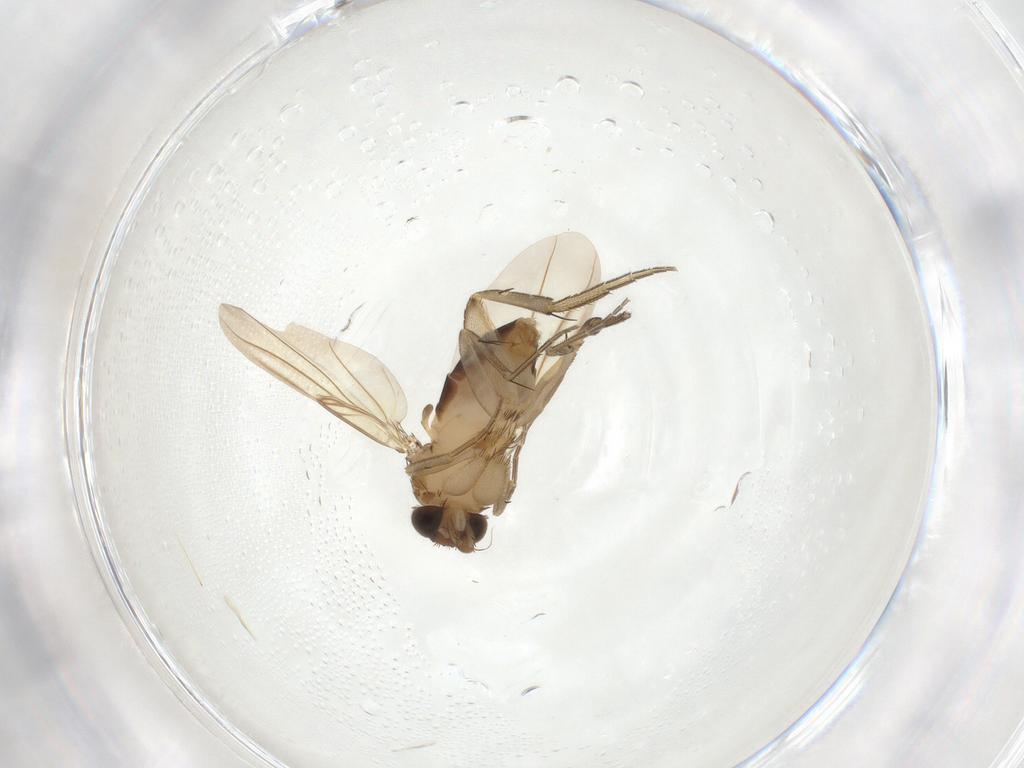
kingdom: Animalia
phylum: Arthropoda
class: Insecta
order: Diptera
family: Phoridae
